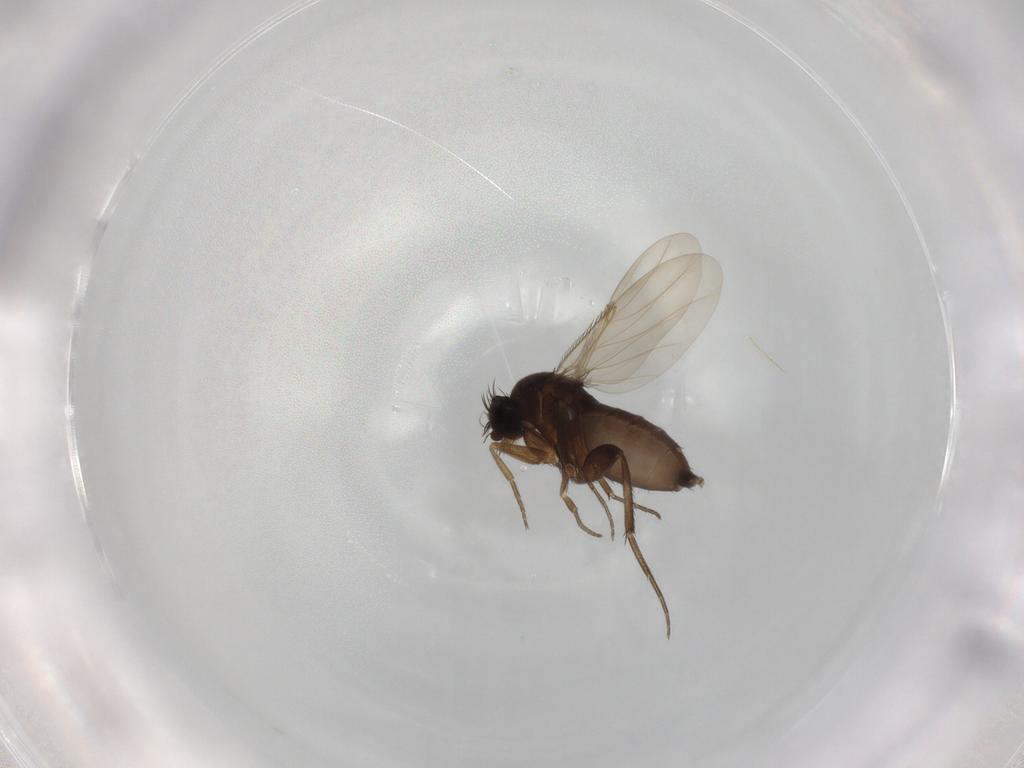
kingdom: Animalia
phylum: Arthropoda
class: Insecta
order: Diptera
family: Phoridae
